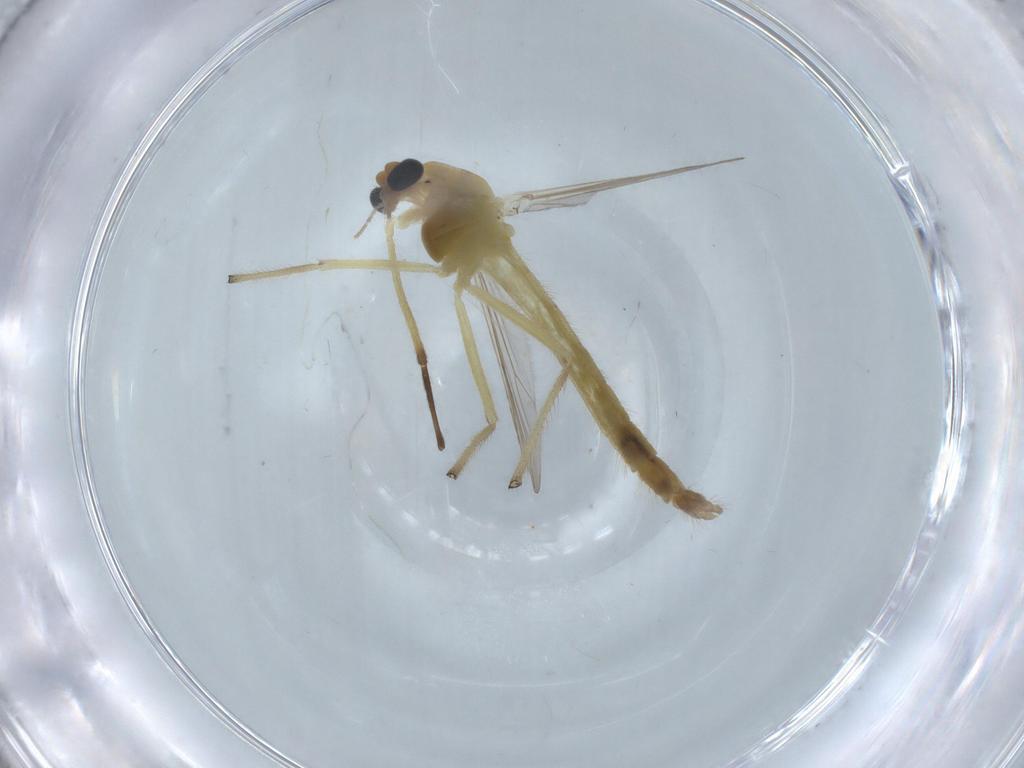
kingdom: Animalia
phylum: Arthropoda
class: Insecta
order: Diptera
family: Chironomidae
